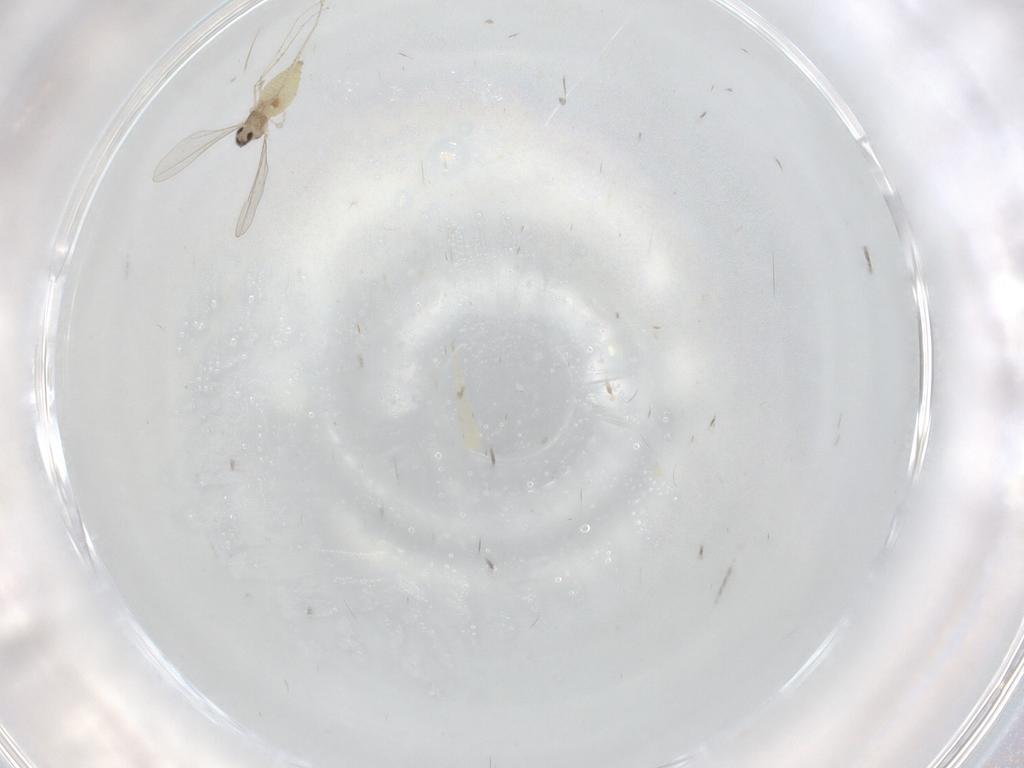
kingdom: Animalia
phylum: Arthropoda
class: Insecta
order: Diptera
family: Cecidomyiidae
